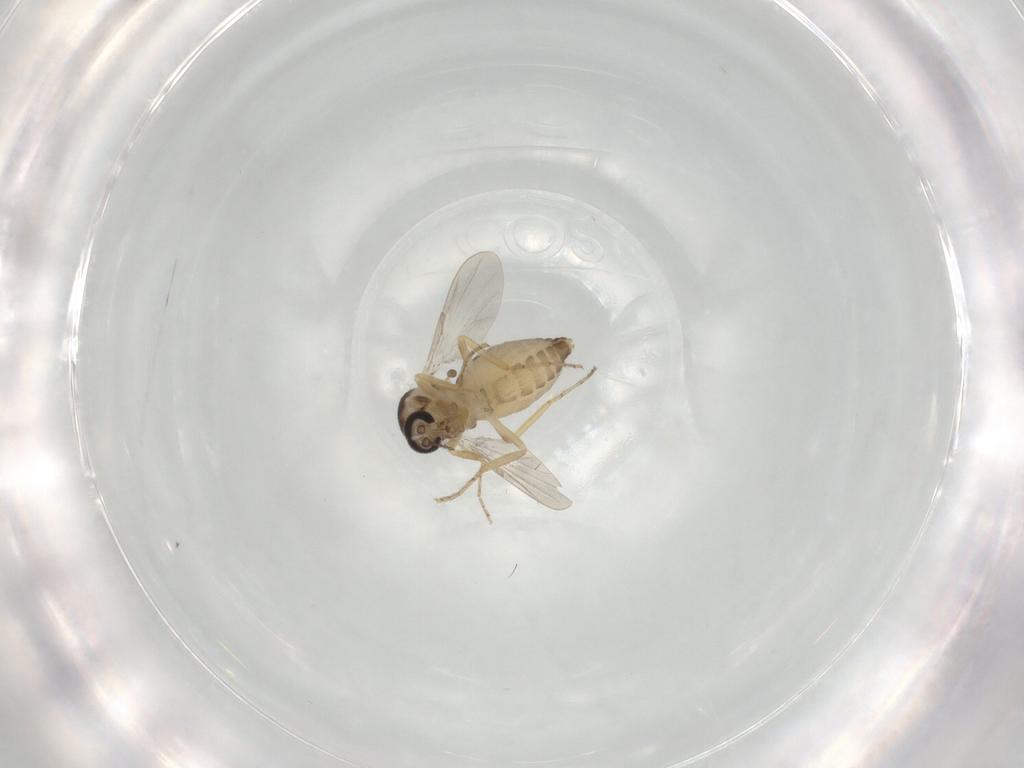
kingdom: Animalia
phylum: Arthropoda
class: Insecta
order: Diptera
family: Ceratopogonidae
